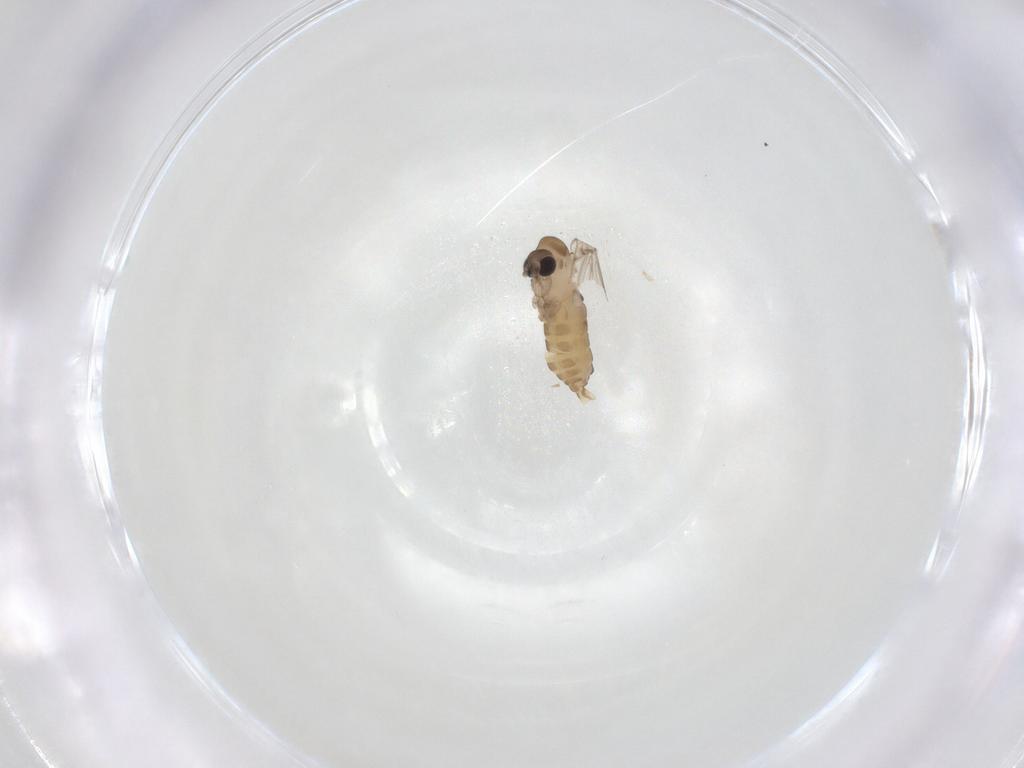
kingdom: Animalia
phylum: Arthropoda
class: Insecta
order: Diptera
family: Psychodidae
